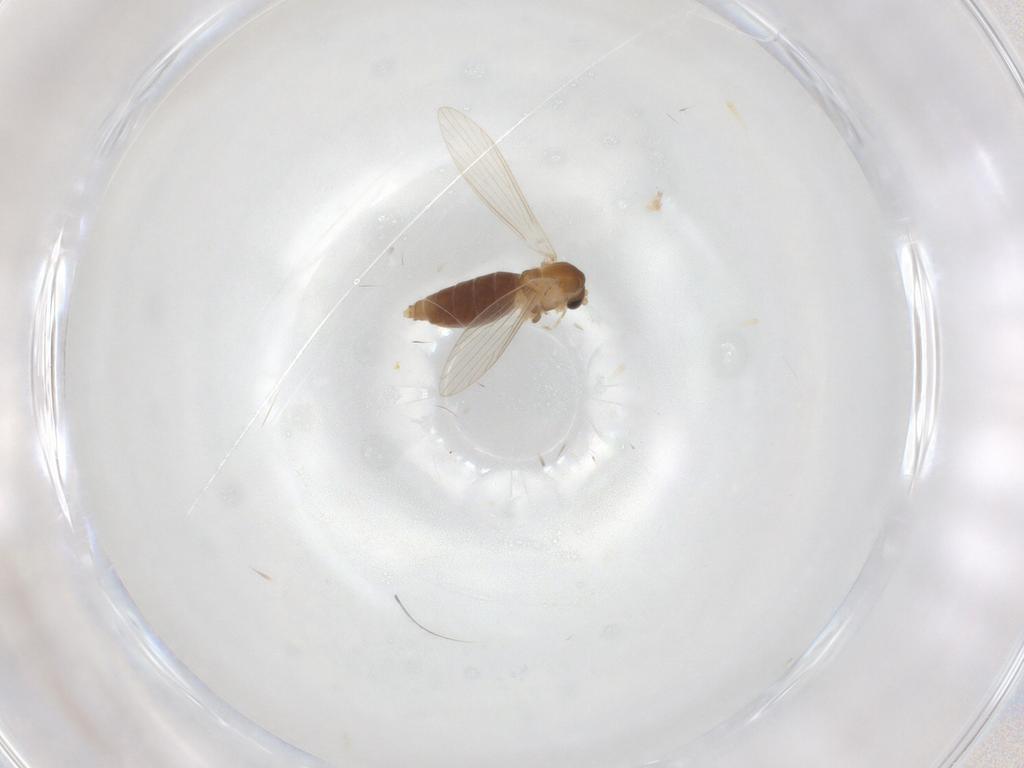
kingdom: Animalia
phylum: Arthropoda
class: Insecta
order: Diptera
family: Psychodidae
